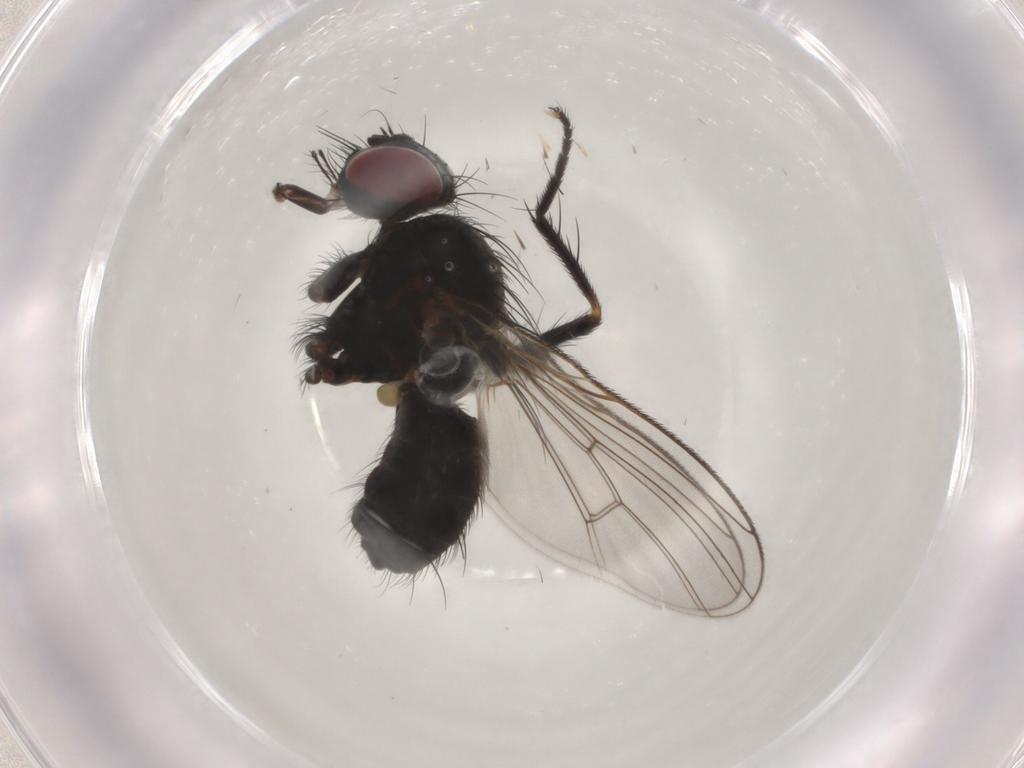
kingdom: Animalia
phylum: Arthropoda
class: Insecta
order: Diptera
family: Muscidae
